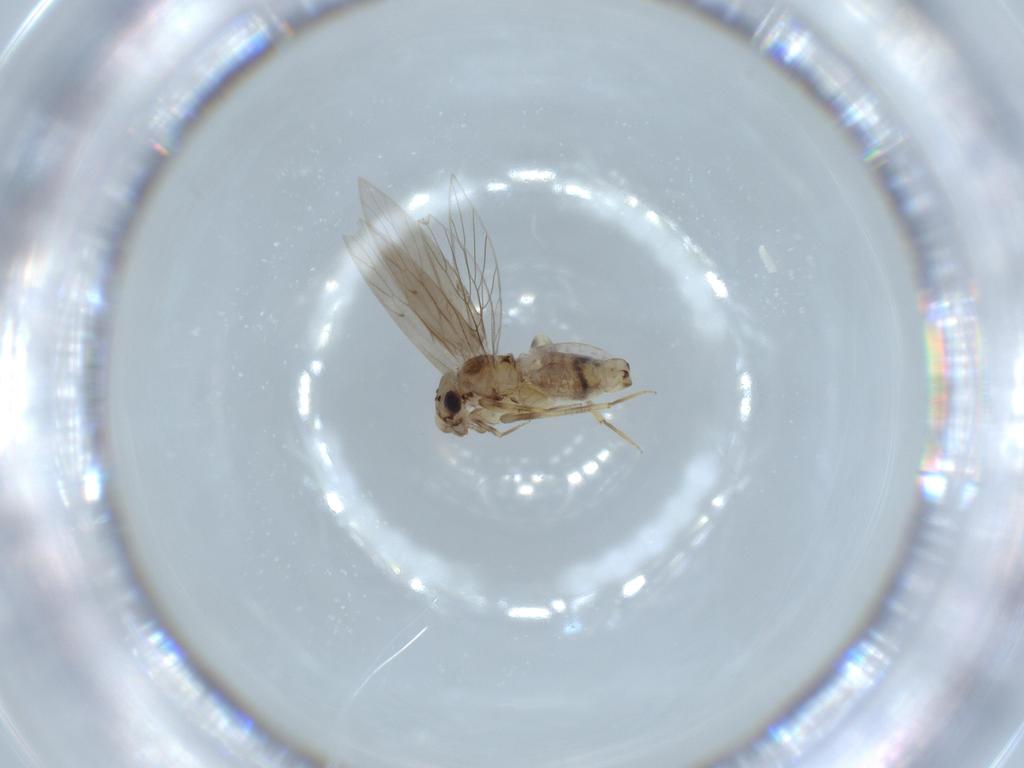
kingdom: Animalia
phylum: Arthropoda
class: Insecta
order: Psocodea
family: Lepidopsocidae
